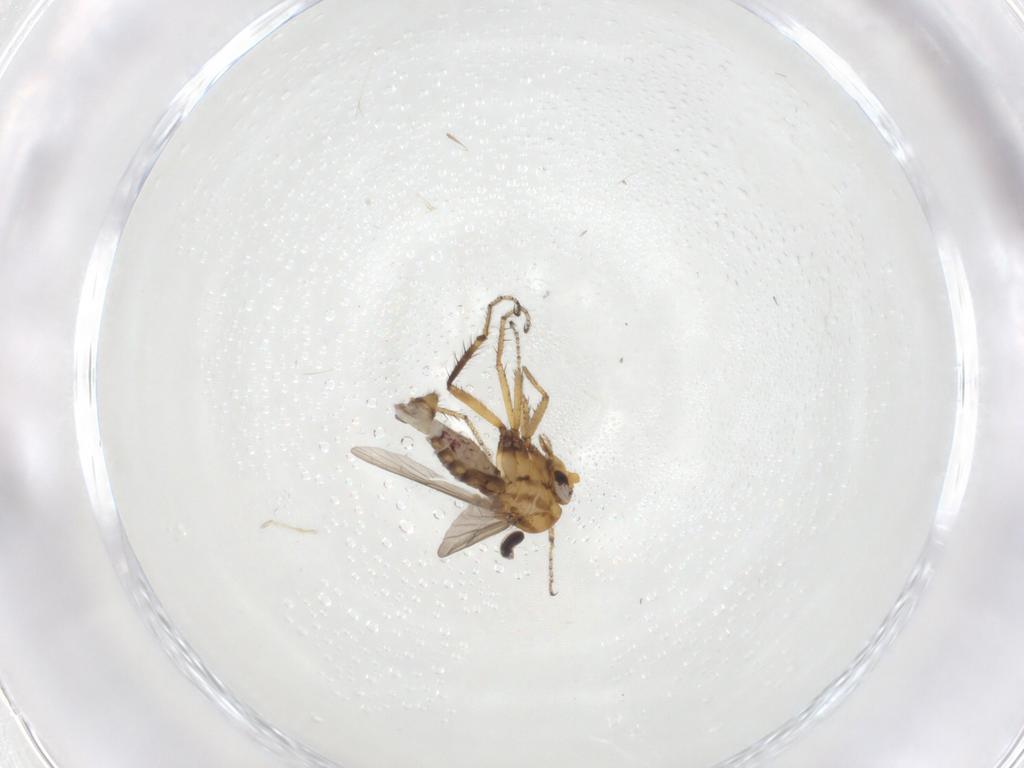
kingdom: Animalia
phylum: Arthropoda
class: Insecta
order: Diptera
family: Ceratopogonidae
